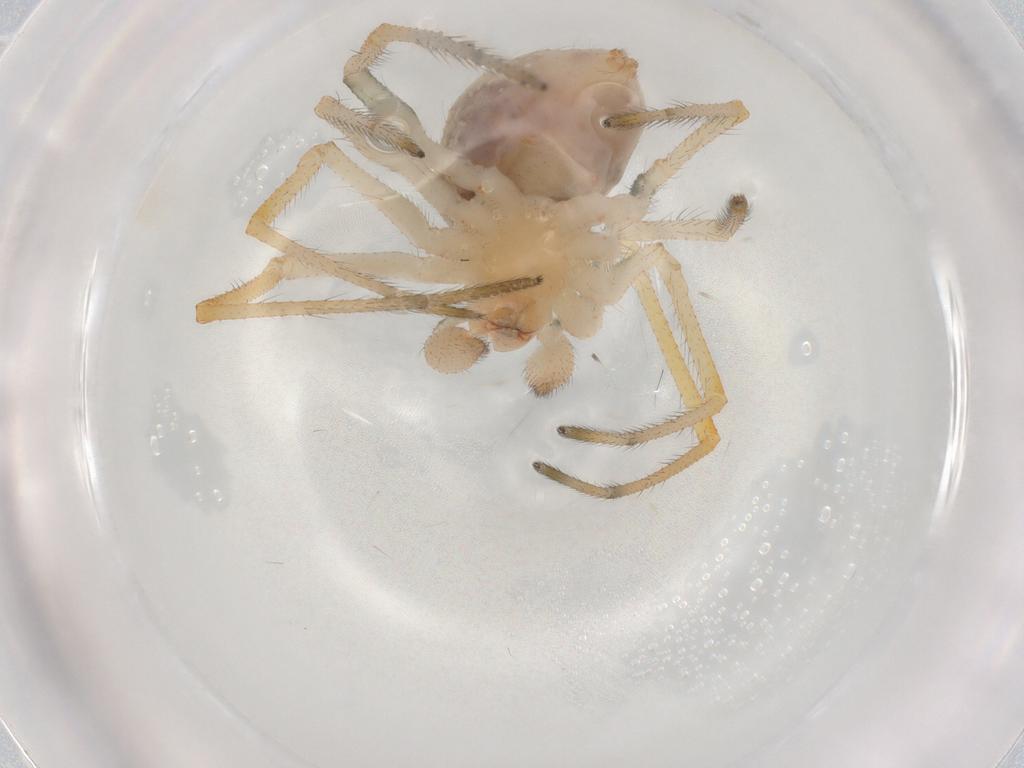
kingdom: Animalia
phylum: Arthropoda
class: Arachnida
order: Araneae
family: Theridiidae
